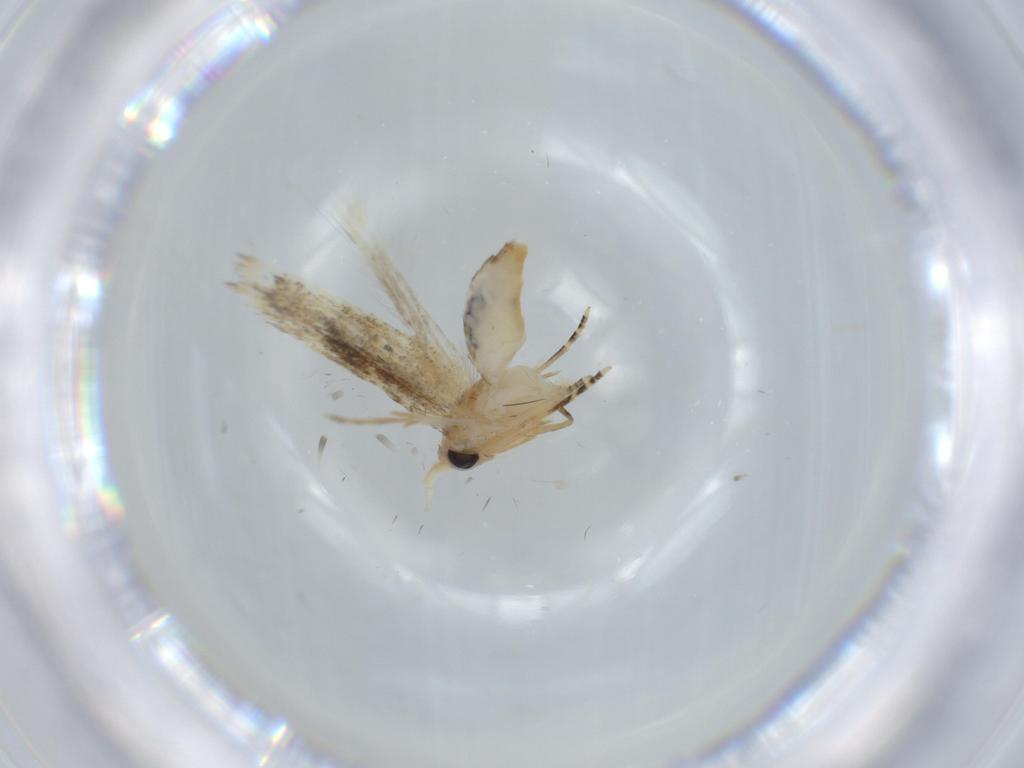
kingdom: Animalia
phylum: Arthropoda
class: Insecta
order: Lepidoptera
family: Bucculatricidae
